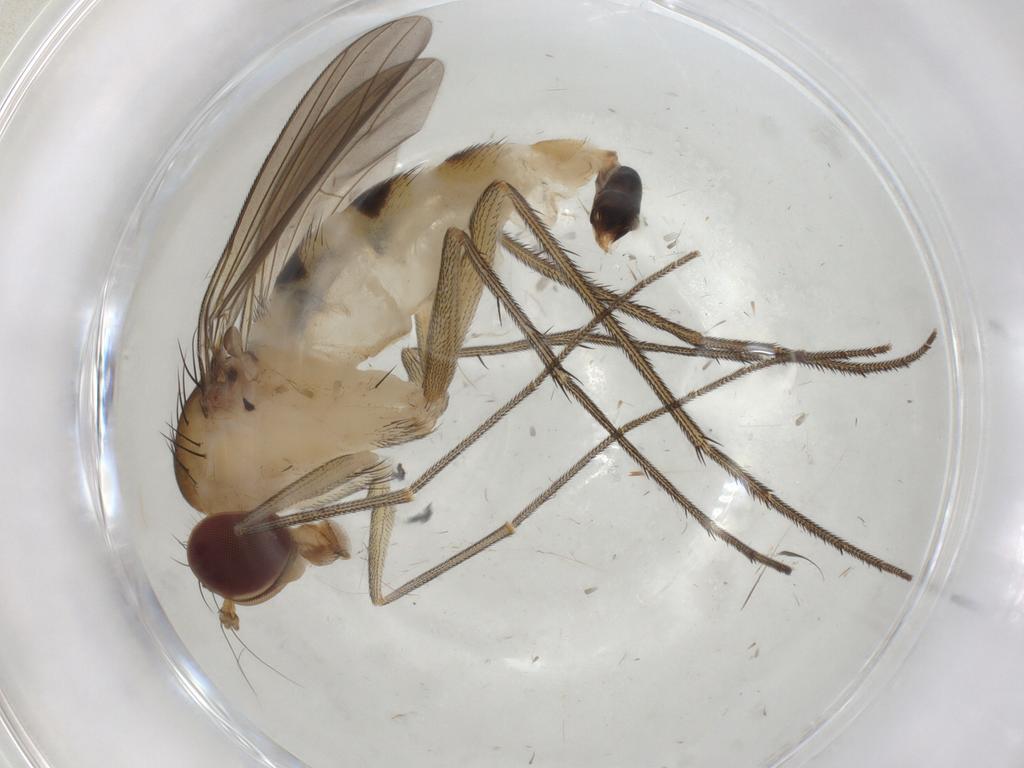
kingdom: Animalia
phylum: Arthropoda
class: Insecta
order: Diptera
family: Dolichopodidae
